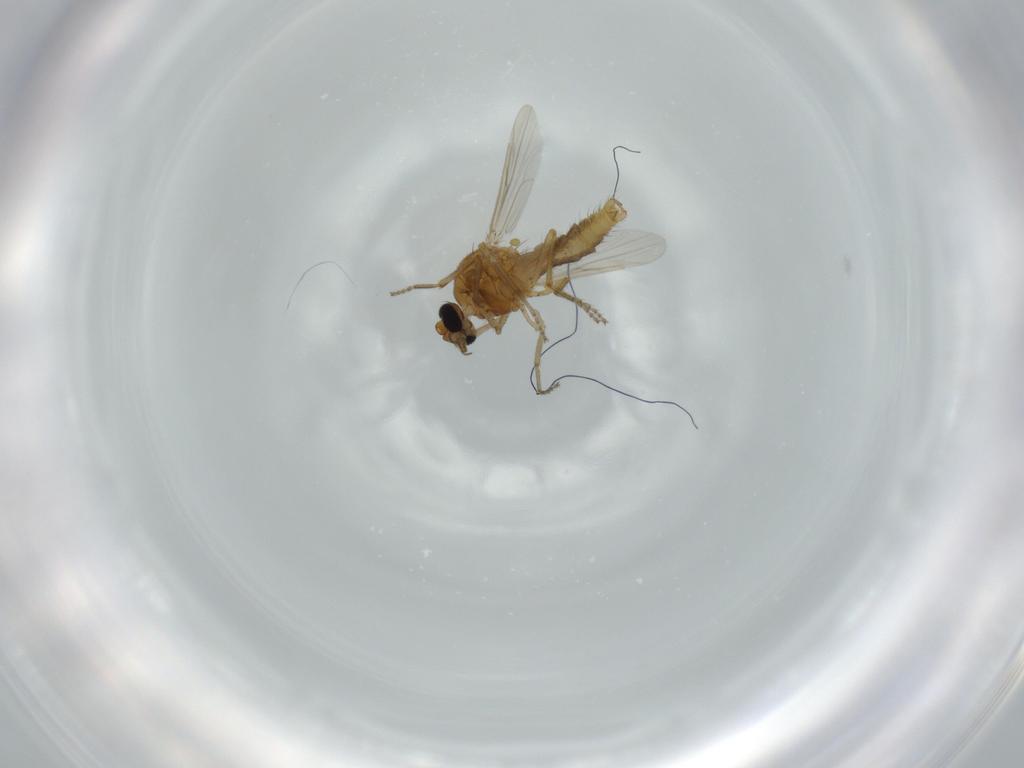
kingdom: Animalia
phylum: Arthropoda
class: Insecta
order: Diptera
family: Ceratopogonidae
